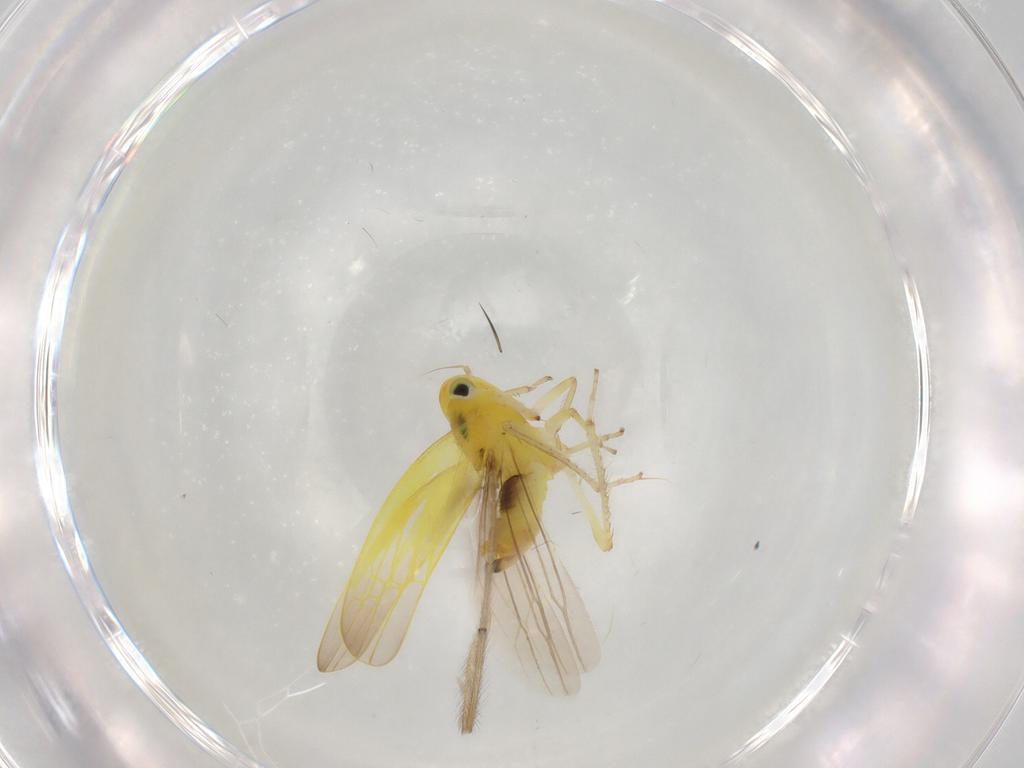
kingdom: Animalia
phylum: Arthropoda
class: Insecta
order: Hemiptera
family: Cicadellidae
